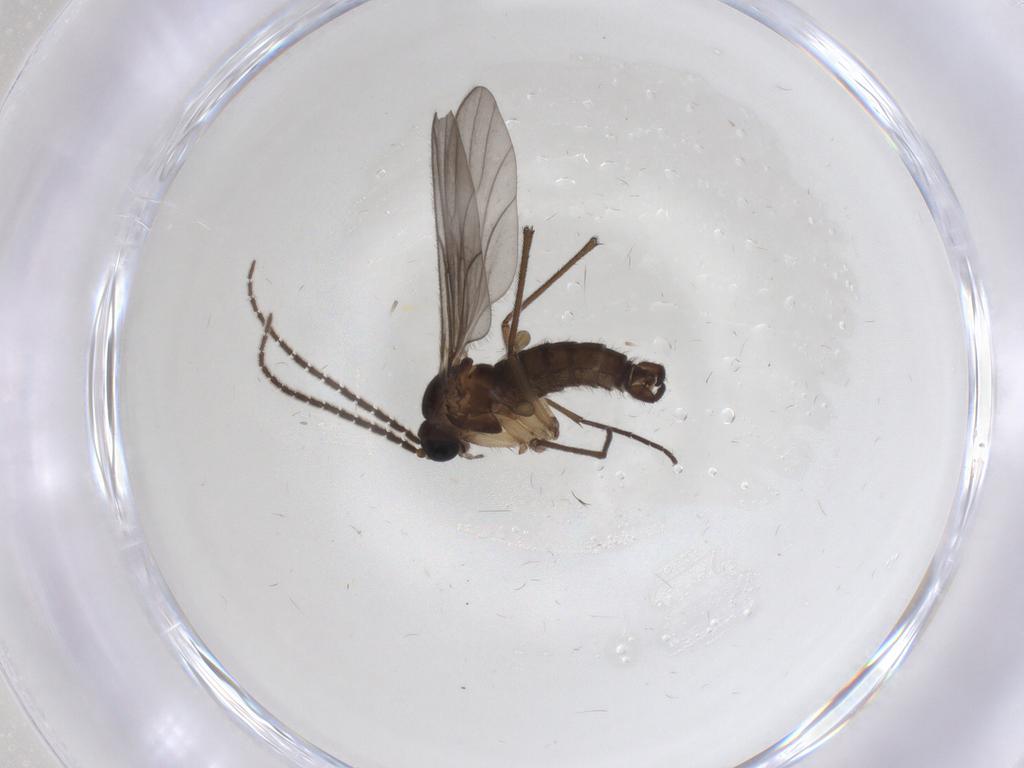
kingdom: Animalia
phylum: Arthropoda
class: Insecta
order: Diptera
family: Sciaridae
